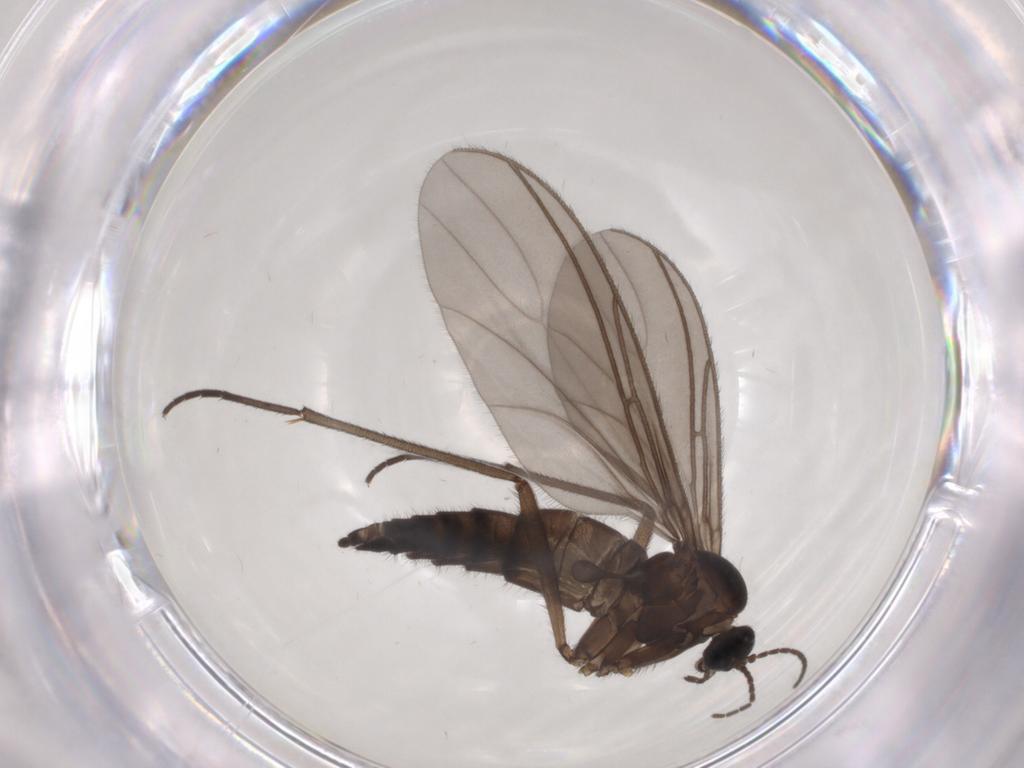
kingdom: Animalia
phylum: Arthropoda
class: Insecta
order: Diptera
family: Sciaridae
